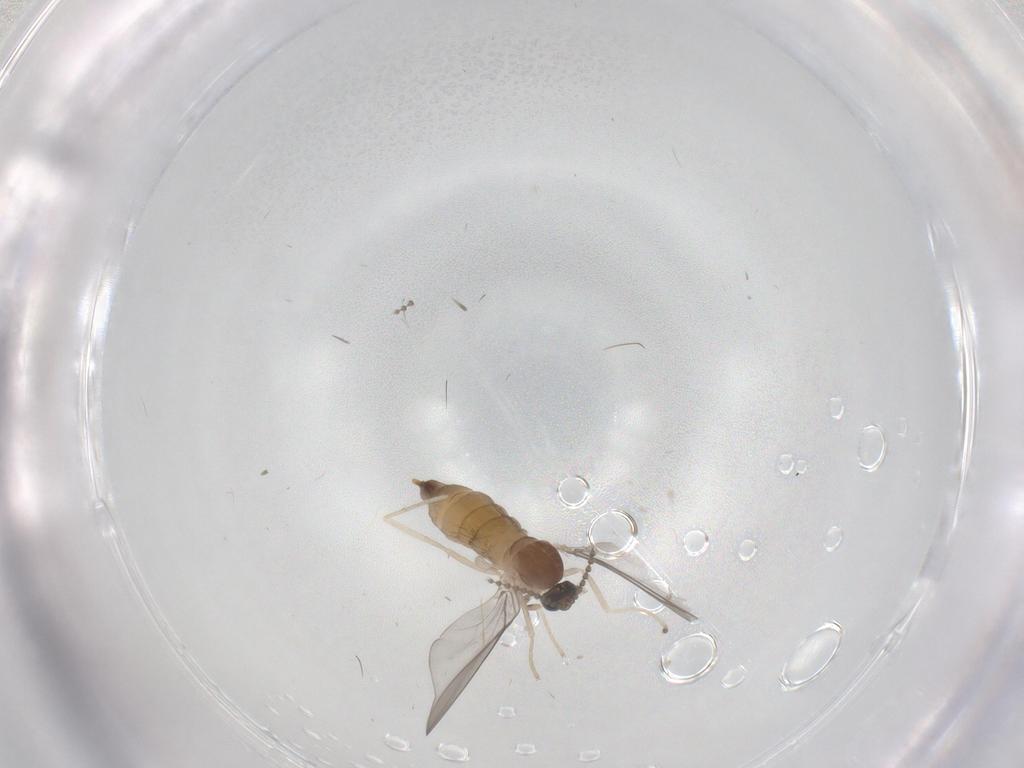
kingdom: Animalia
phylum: Arthropoda
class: Insecta
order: Diptera
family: Cecidomyiidae
